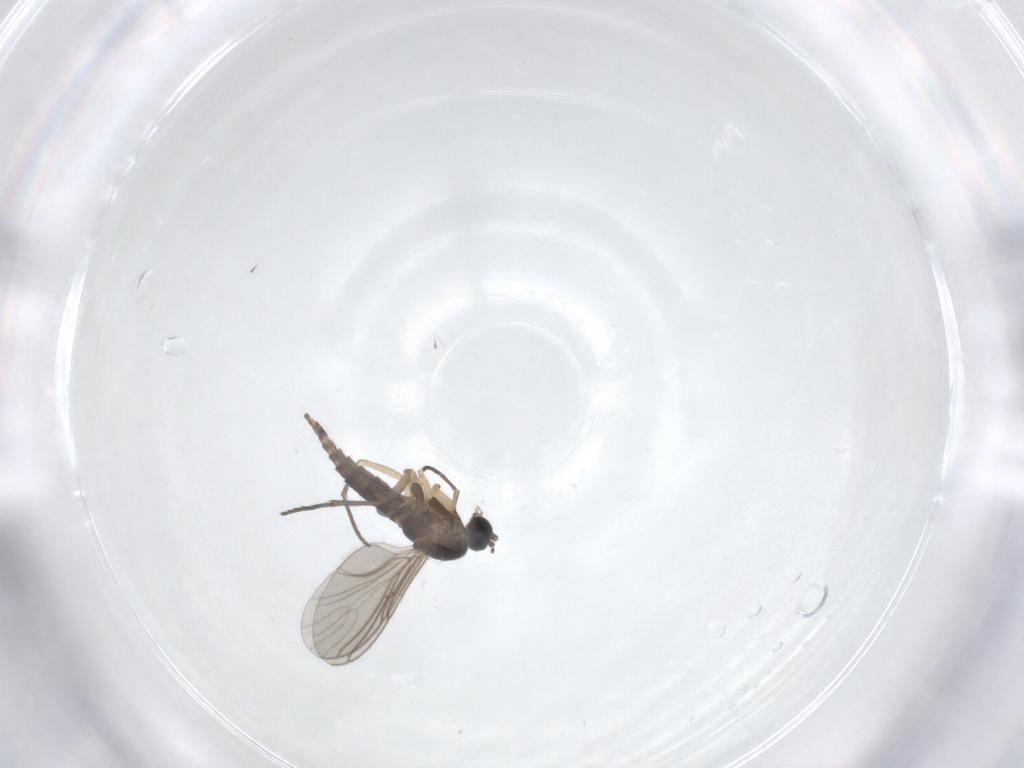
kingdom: Animalia
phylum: Arthropoda
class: Insecta
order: Diptera
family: Sciaridae
